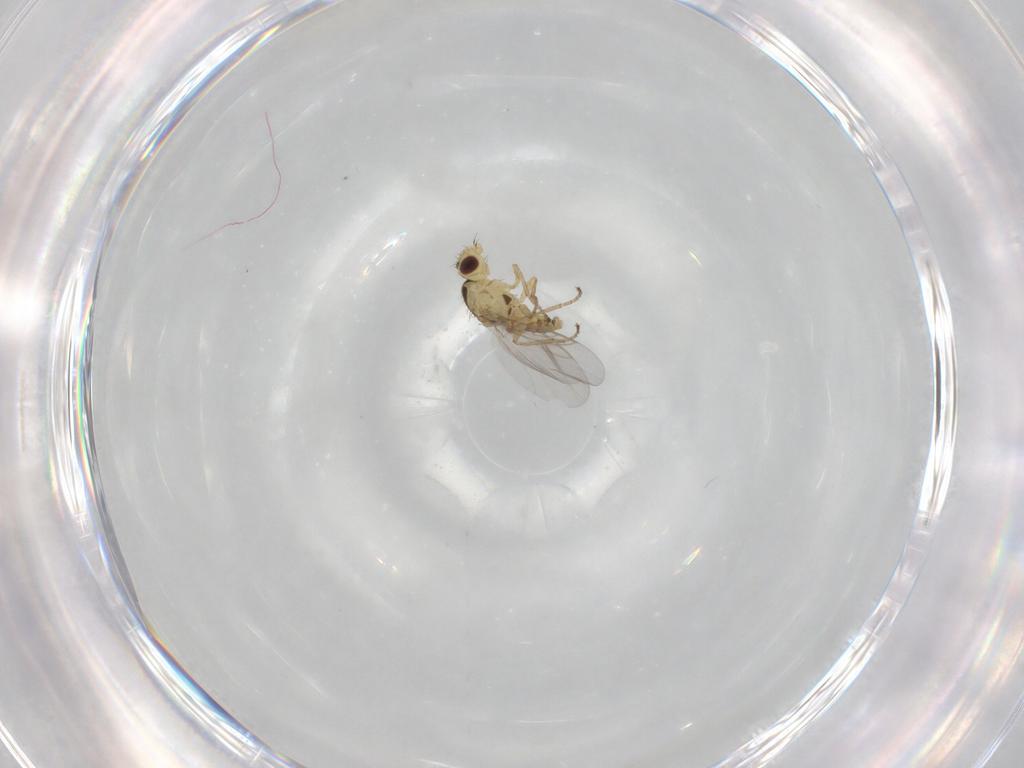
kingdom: Animalia
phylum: Arthropoda
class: Insecta
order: Diptera
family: Agromyzidae
